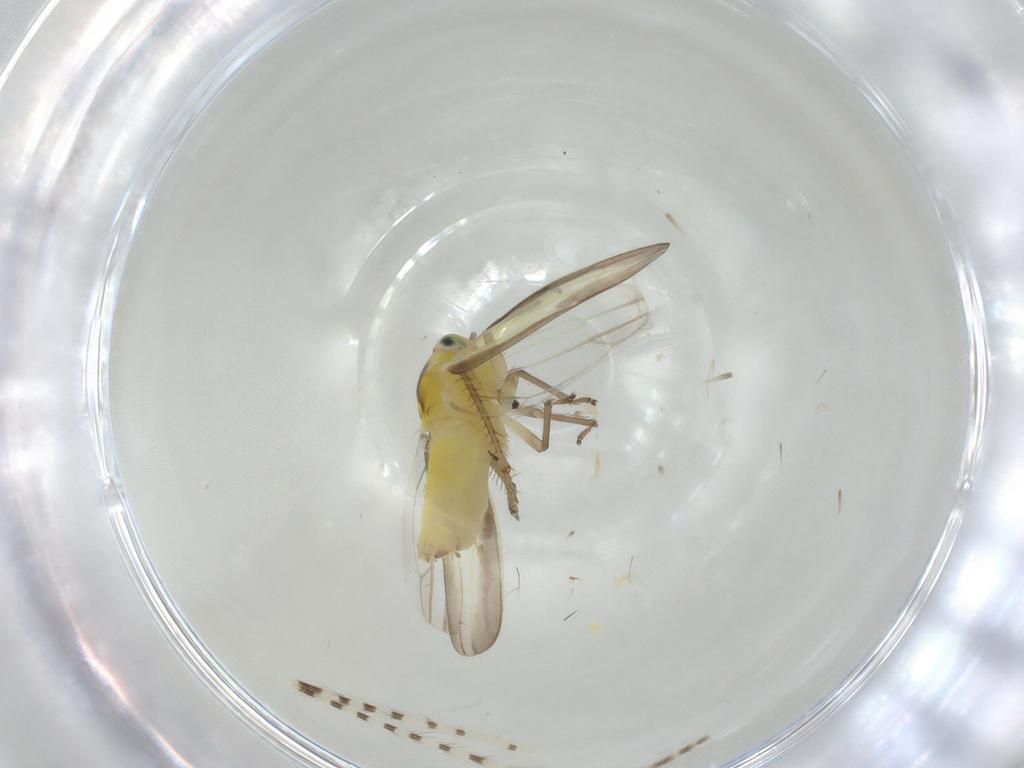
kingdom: Animalia
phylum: Arthropoda
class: Insecta
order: Hemiptera
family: Cicadellidae
